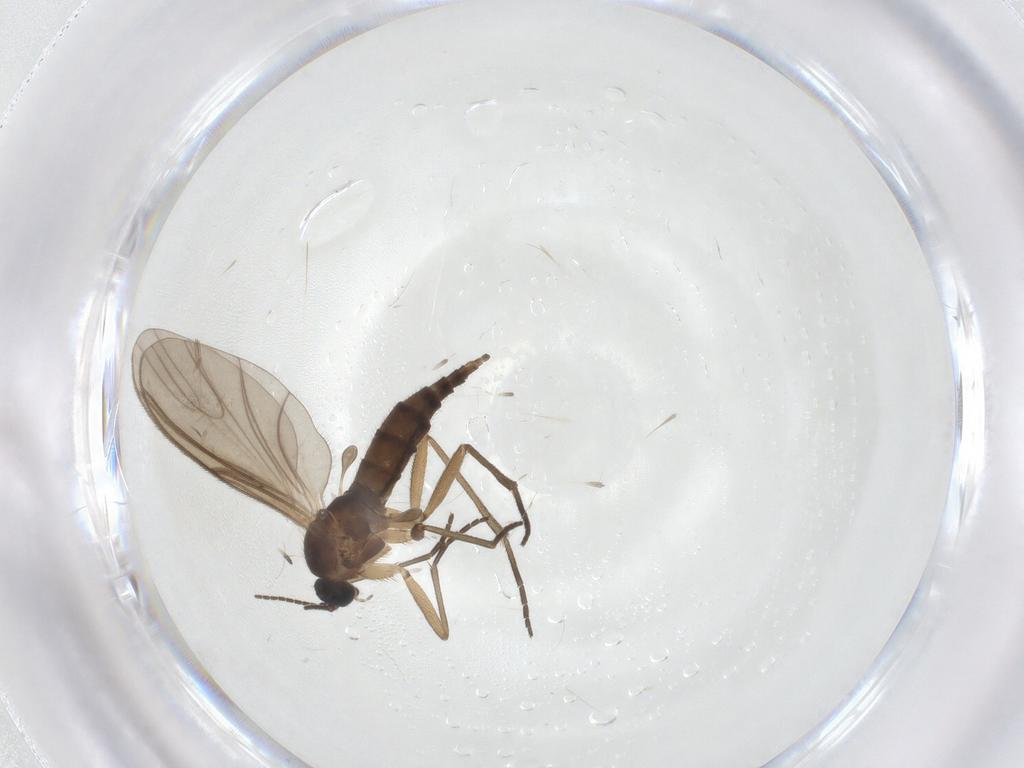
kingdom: Animalia
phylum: Arthropoda
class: Insecta
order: Diptera
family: Sciaridae
